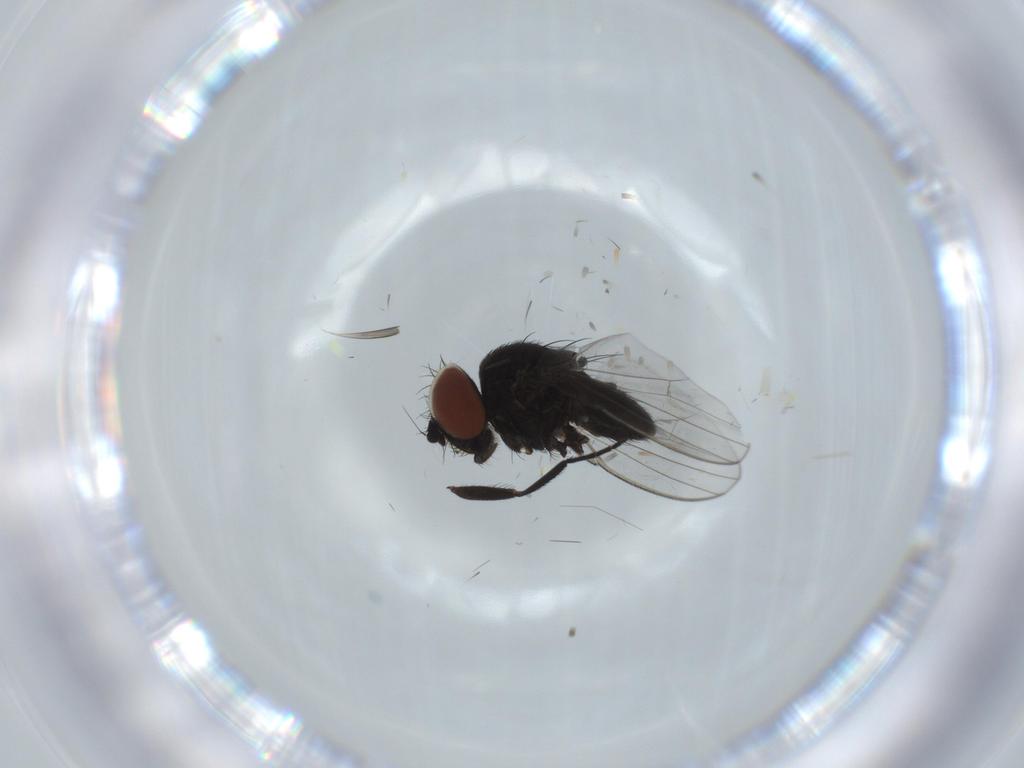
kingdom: Animalia
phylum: Arthropoda
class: Insecta
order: Diptera
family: Milichiidae
